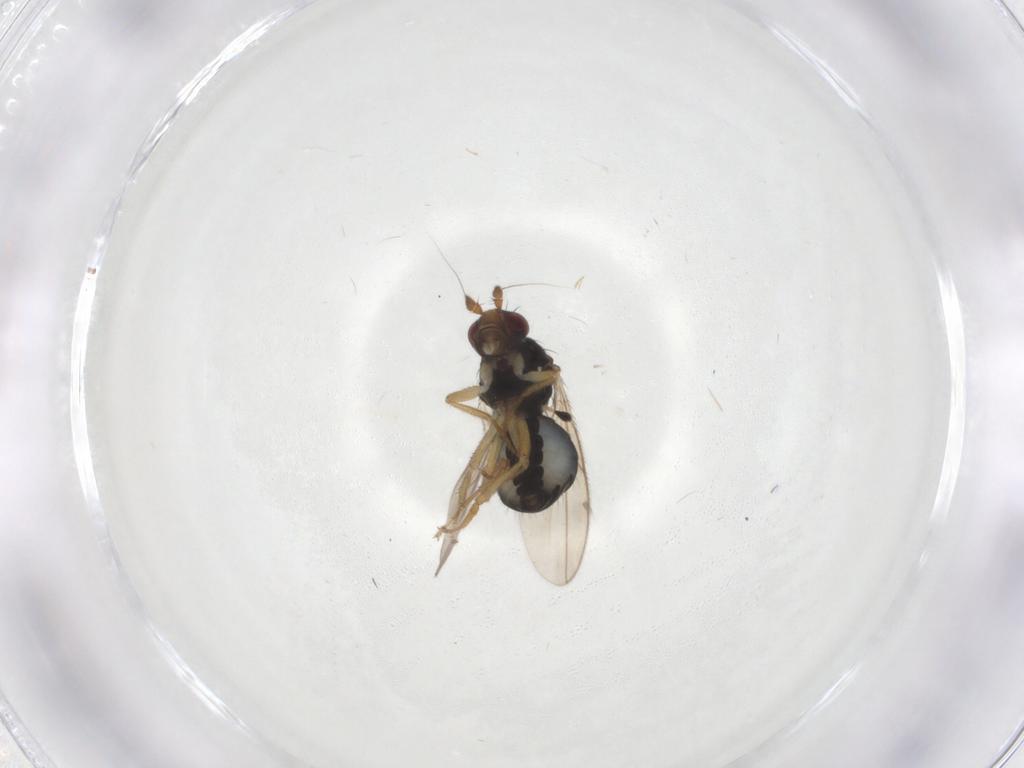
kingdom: Animalia
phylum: Arthropoda
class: Insecta
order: Diptera
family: Sphaeroceridae
